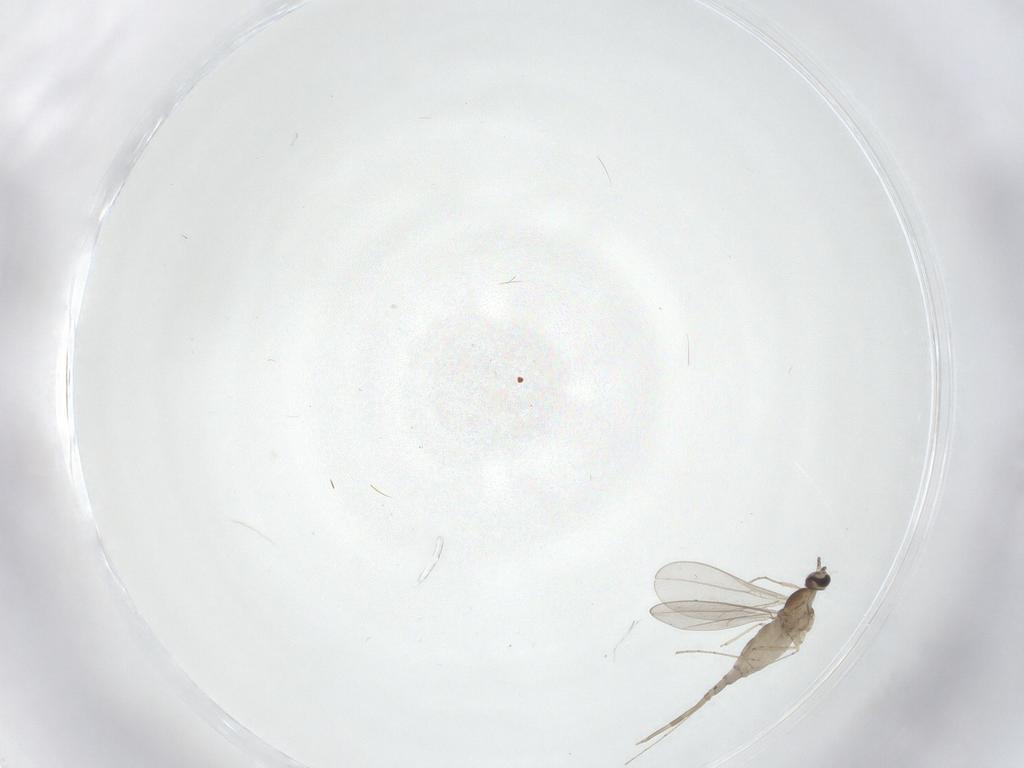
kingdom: Animalia
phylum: Arthropoda
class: Insecta
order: Diptera
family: Cecidomyiidae
